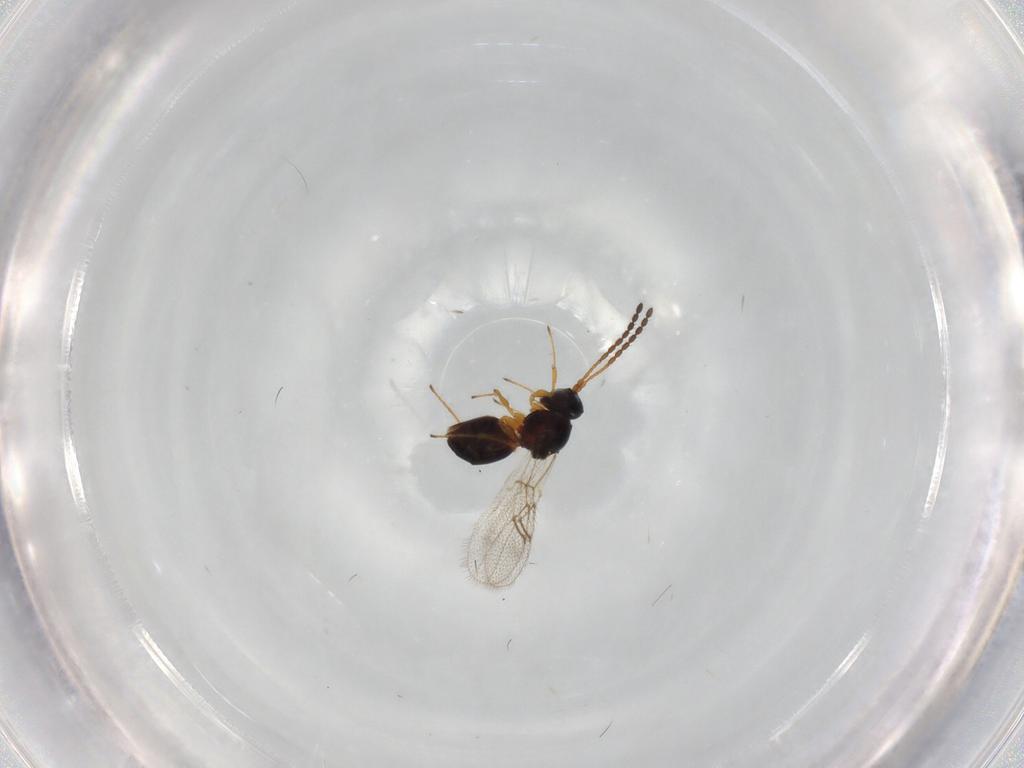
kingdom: Animalia
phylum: Arthropoda
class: Insecta
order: Hymenoptera
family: Figitidae
